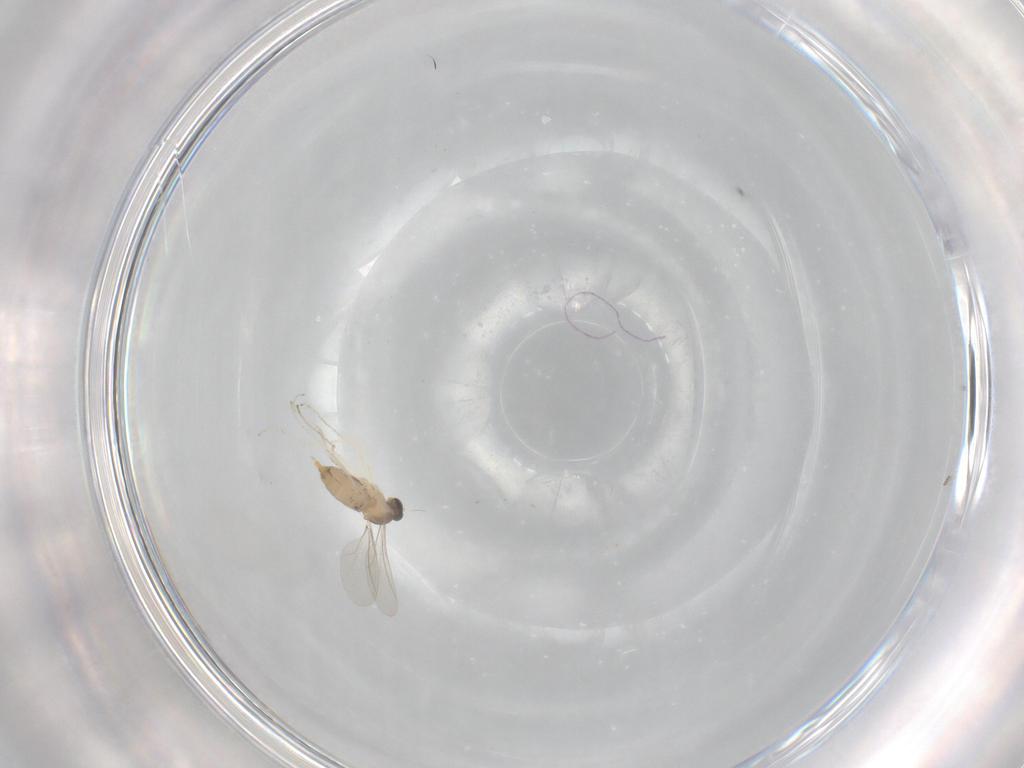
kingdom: Animalia
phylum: Arthropoda
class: Insecta
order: Diptera
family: Cecidomyiidae
